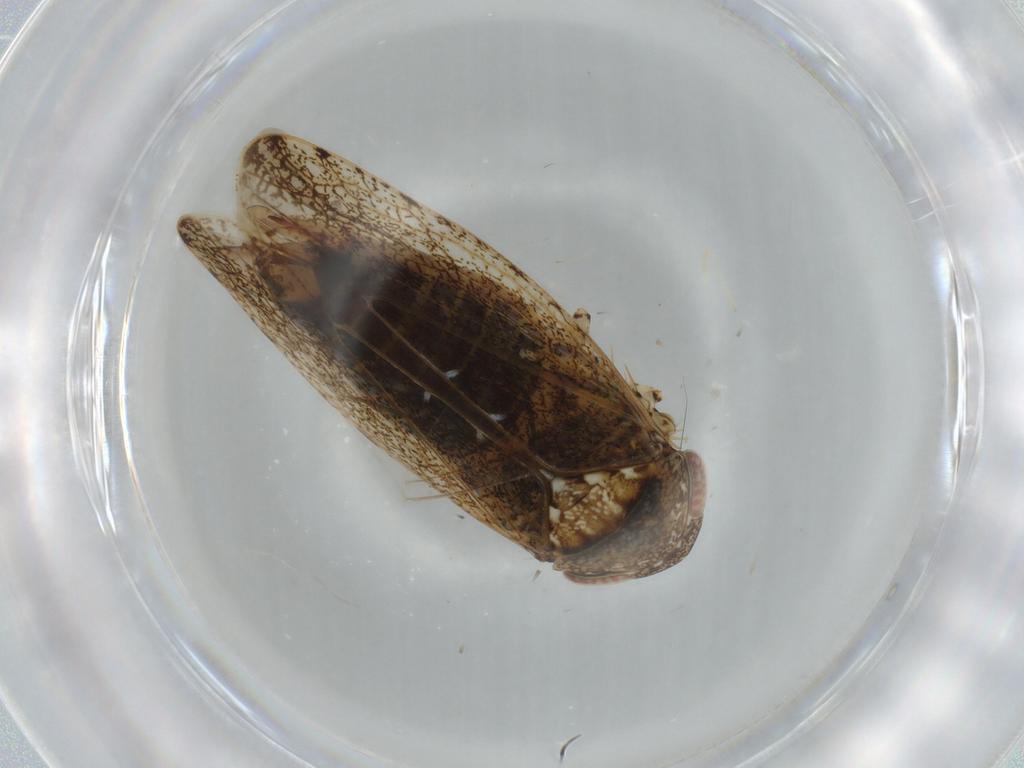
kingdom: Animalia
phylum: Arthropoda
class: Insecta
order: Hemiptera
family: Cicadellidae
